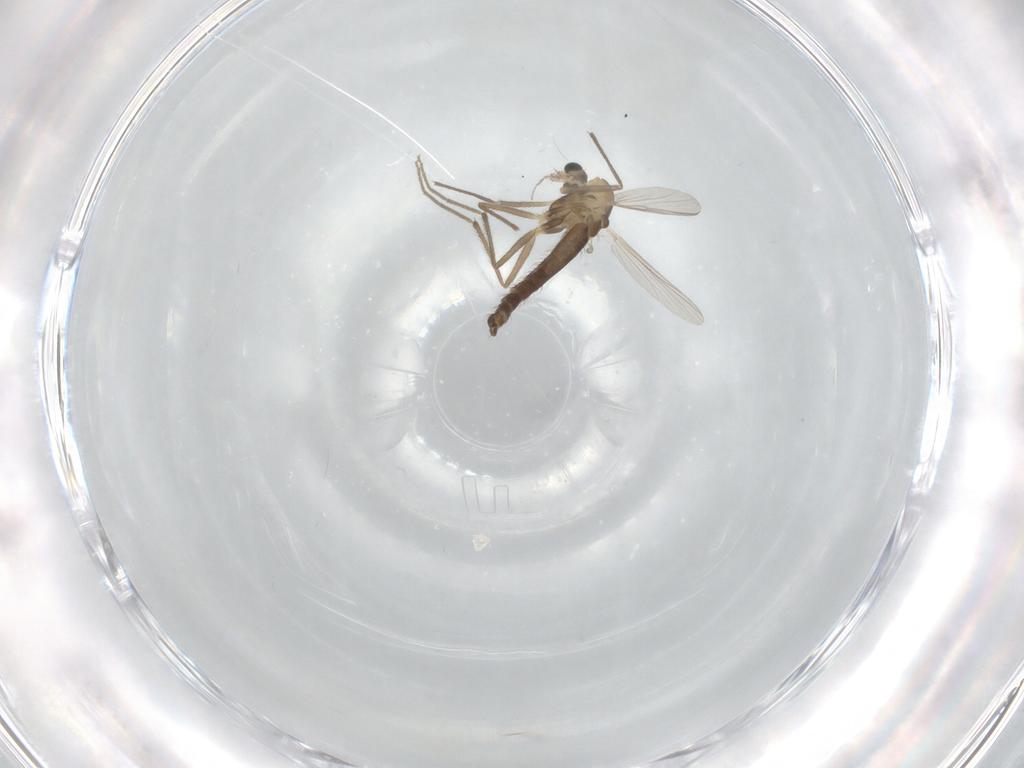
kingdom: Animalia
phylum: Arthropoda
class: Insecta
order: Diptera
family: Chironomidae
